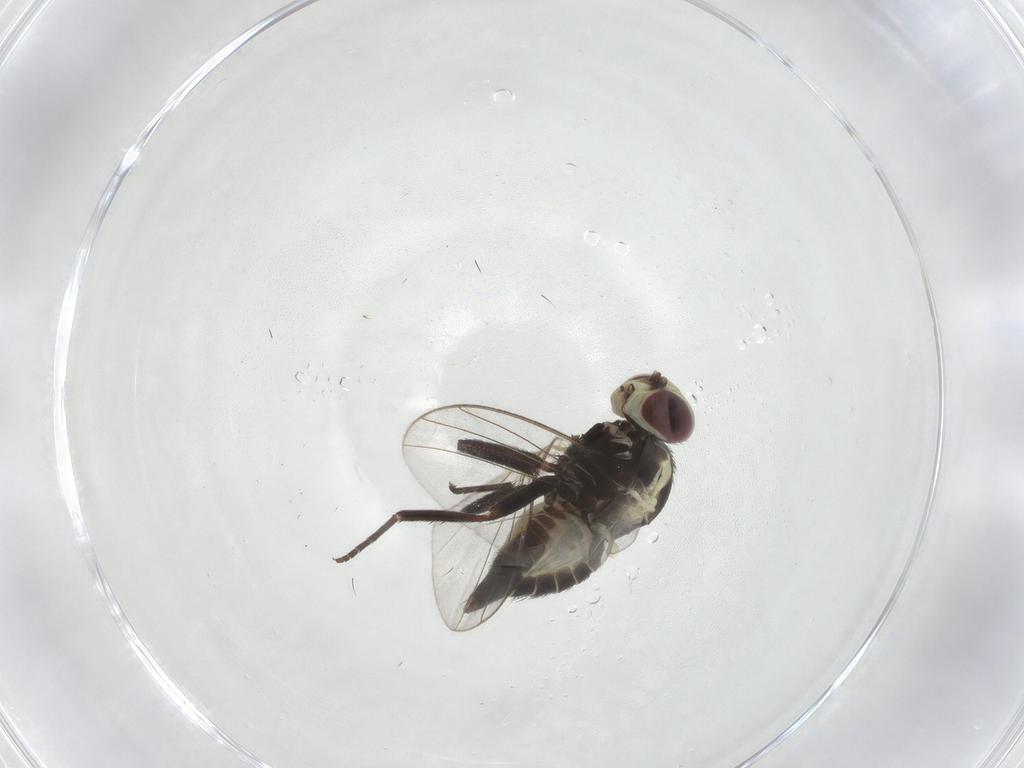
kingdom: Animalia
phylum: Arthropoda
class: Insecta
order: Diptera
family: Agromyzidae
